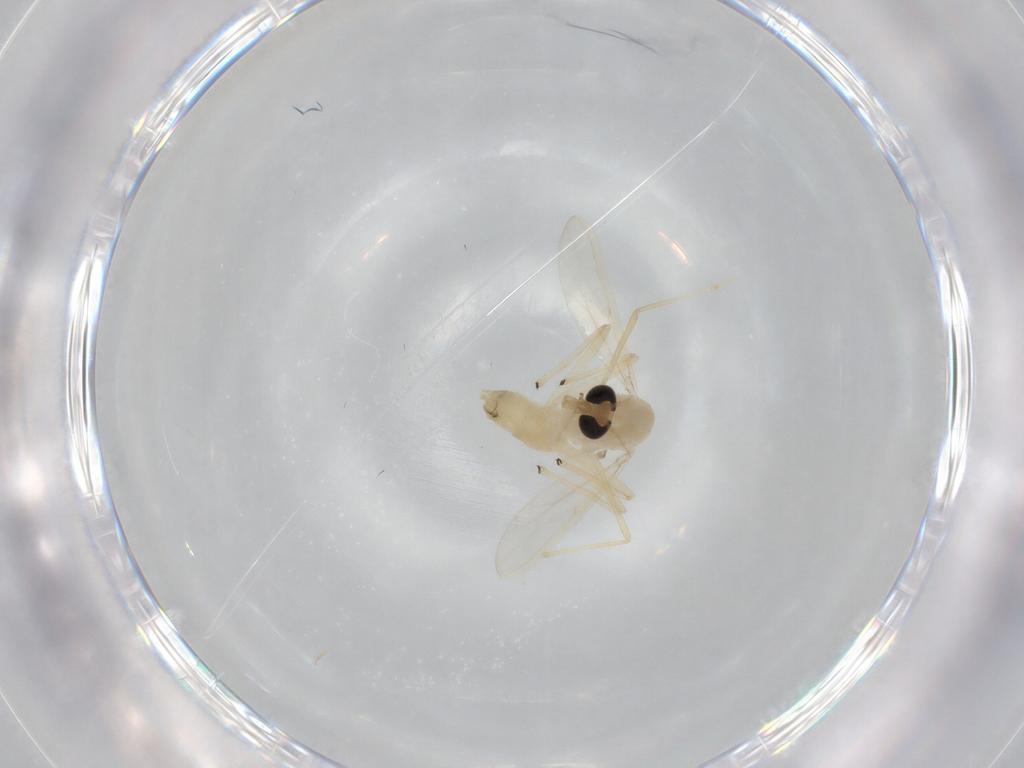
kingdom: Animalia
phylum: Arthropoda
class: Insecta
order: Diptera
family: Chironomidae
